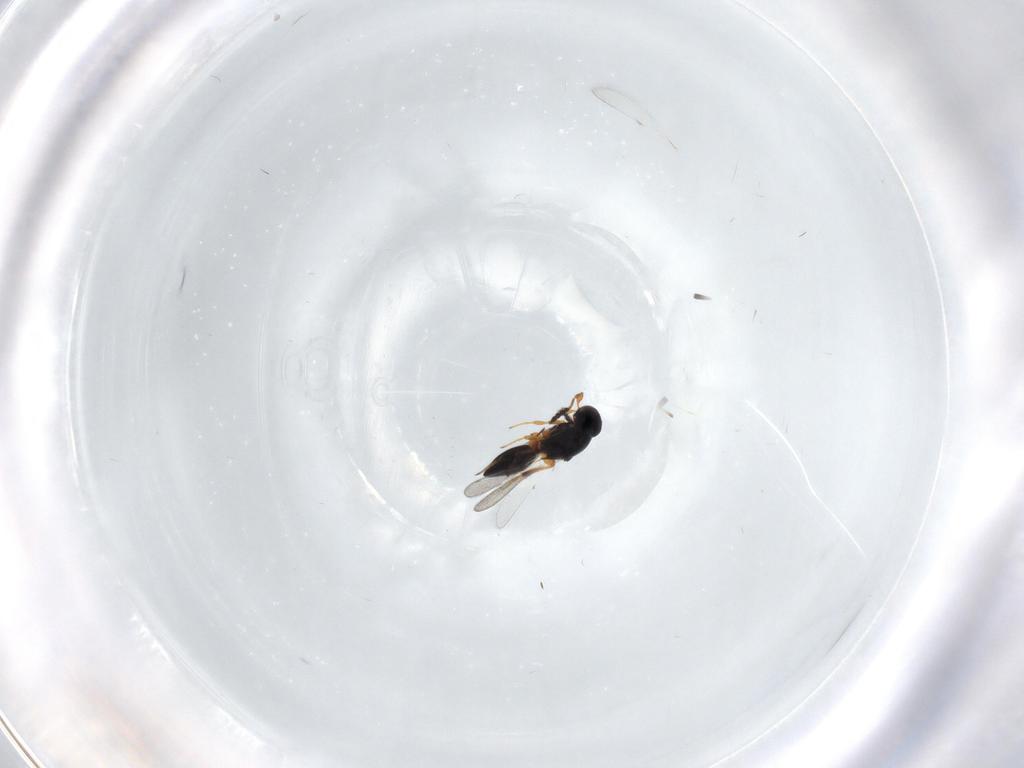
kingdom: Animalia
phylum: Arthropoda
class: Insecta
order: Hymenoptera
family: Platygastridae
